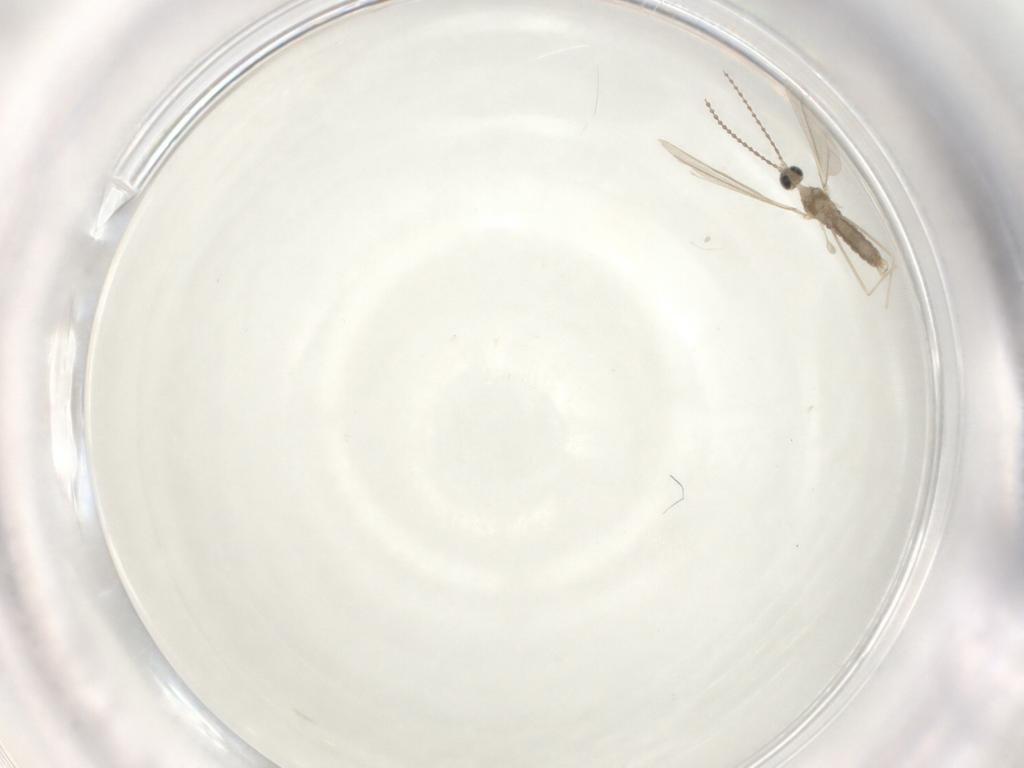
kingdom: Animalia
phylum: Arthropoda
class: Insecta
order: Diptera
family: Cecidomyiidae
